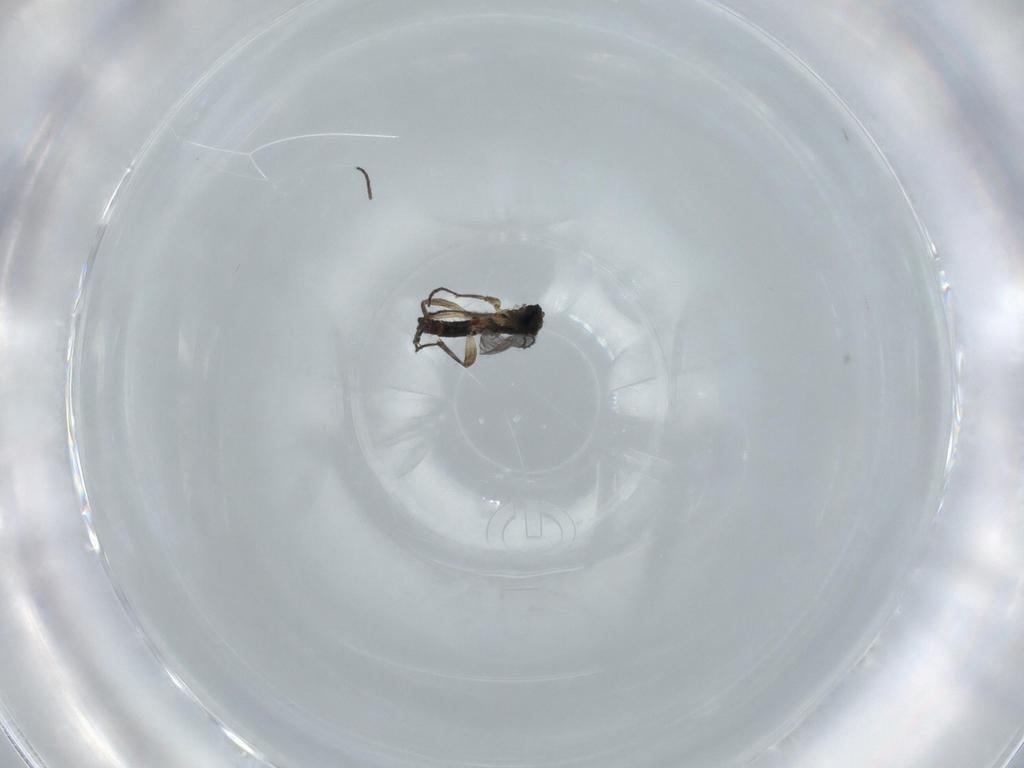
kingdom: Animalia
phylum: Arthropoda
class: Insecta
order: Diptera
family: Sciaridae
